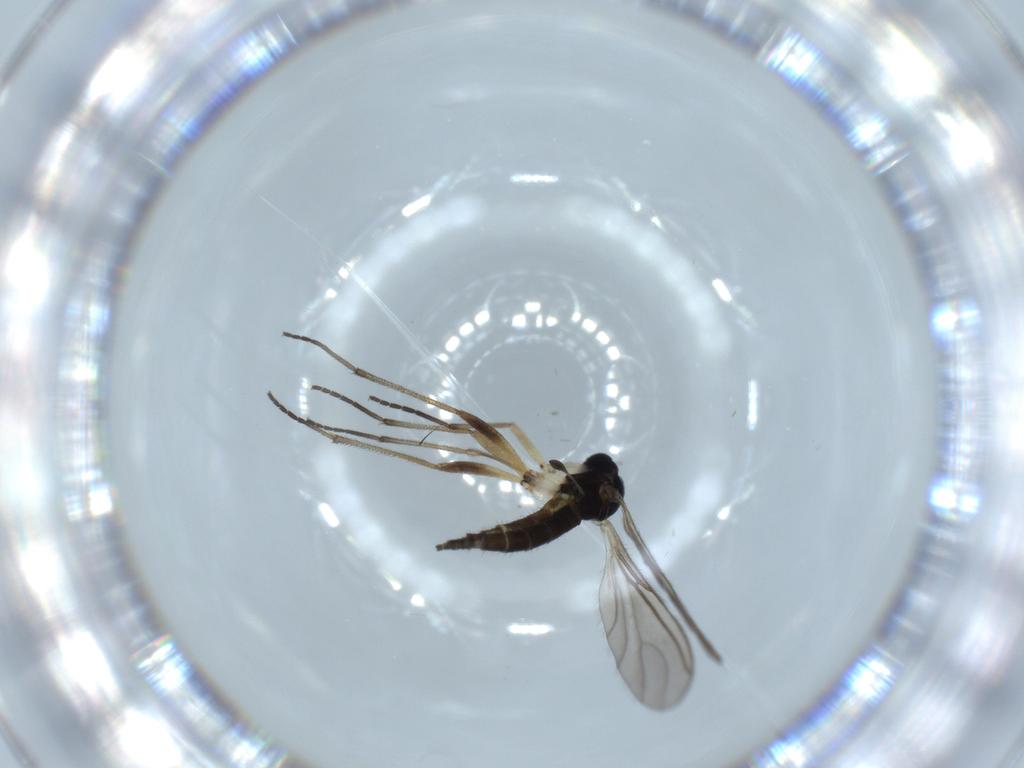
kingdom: Animalia
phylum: Arthropoda
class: Insecta
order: Diptera
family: Sciaridae
